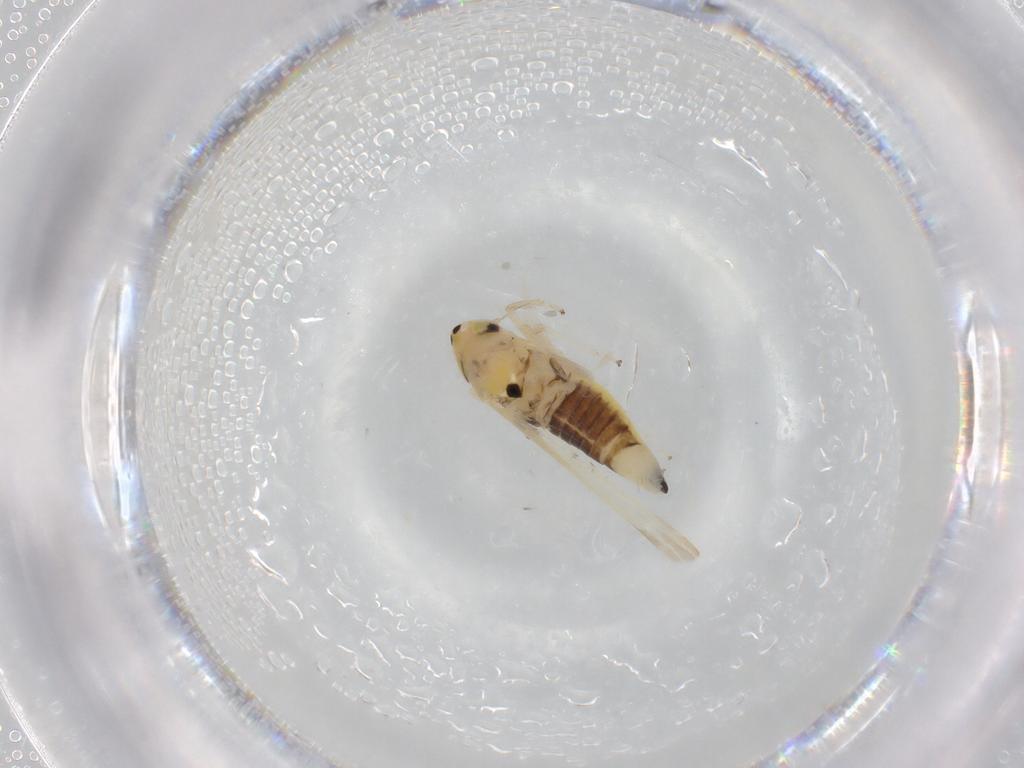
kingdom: Animalia
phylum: Arthropoda
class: Insecta
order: Hemiptera
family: Cicadellidae
